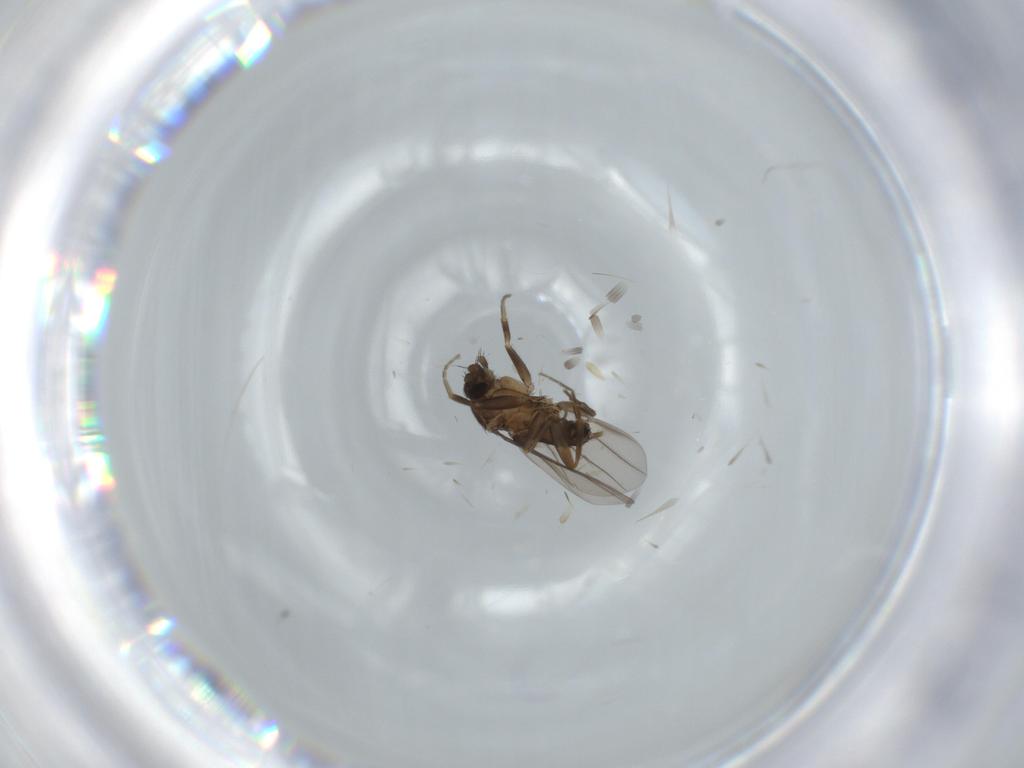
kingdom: Animalia
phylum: Arthropoda
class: Insecta
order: Diptera
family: Milichiidae
